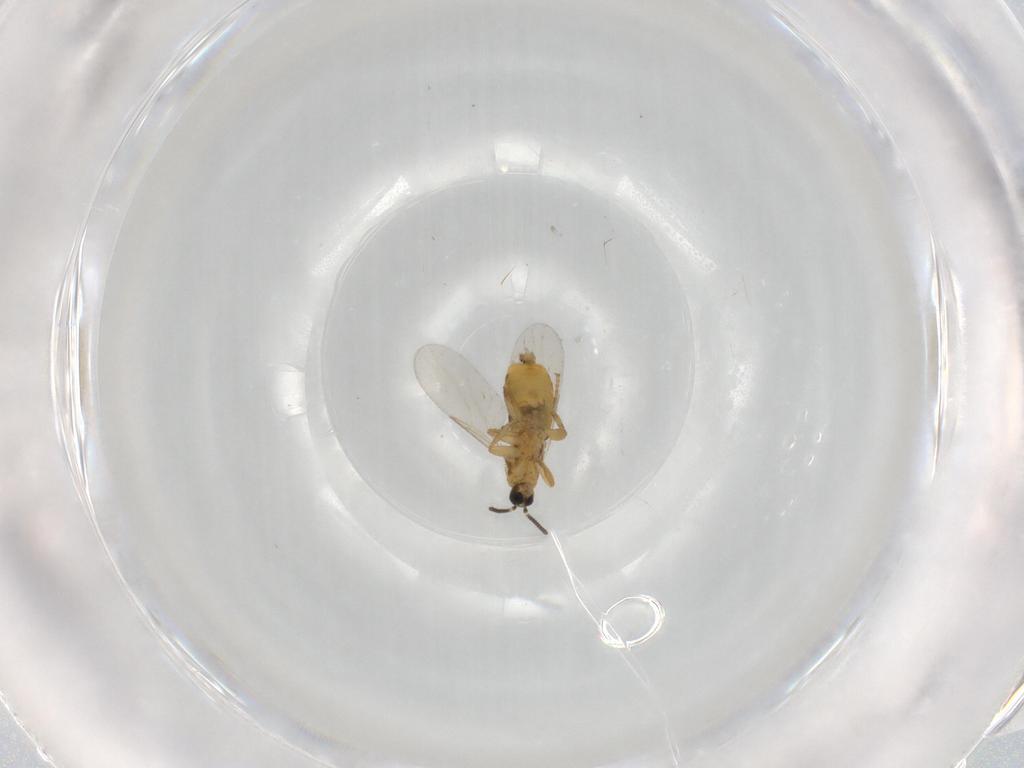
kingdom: Animalia
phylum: Arthropoda
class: Insecta
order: Diptera
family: Scatopsidae
